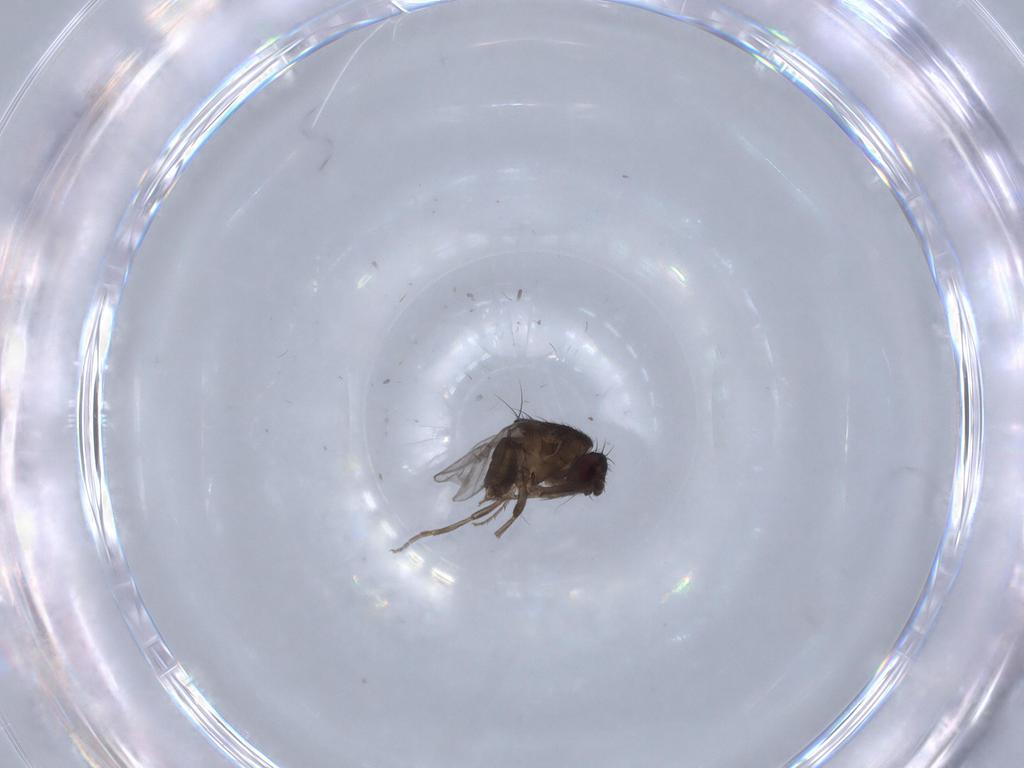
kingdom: Animalia
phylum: Arthropoda
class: Insecta
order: Diptera
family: Sphaeroceridae
